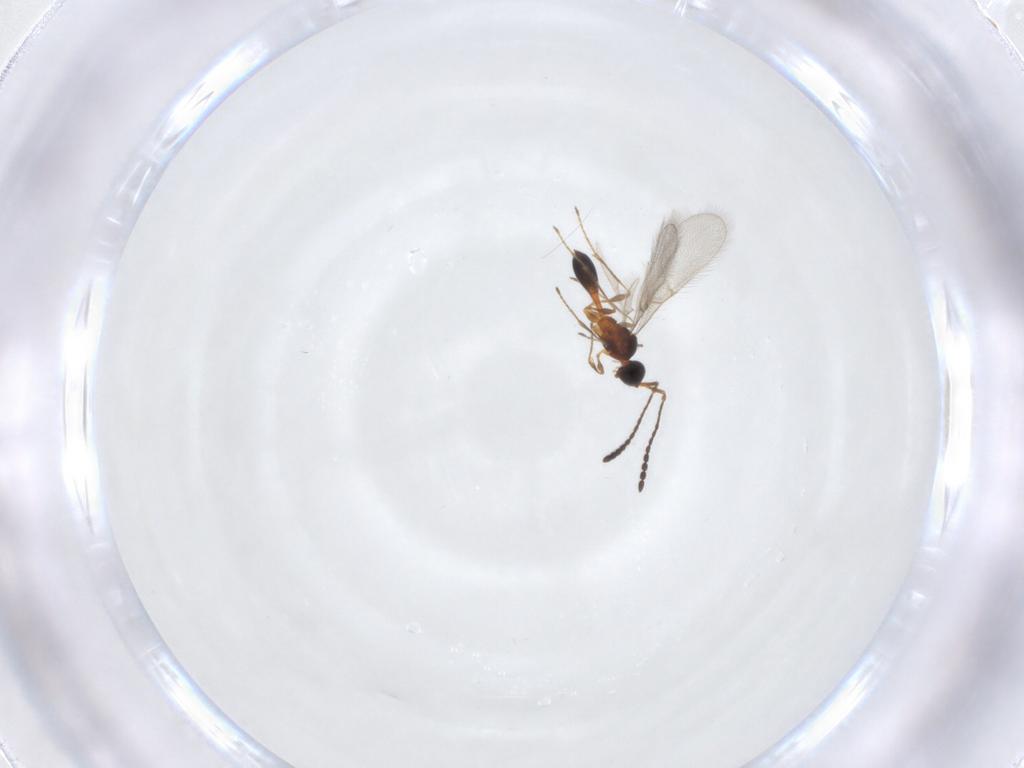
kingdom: Animalia
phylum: Arthropoda
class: Insecta
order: Hymenoptera
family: Diapriidae
